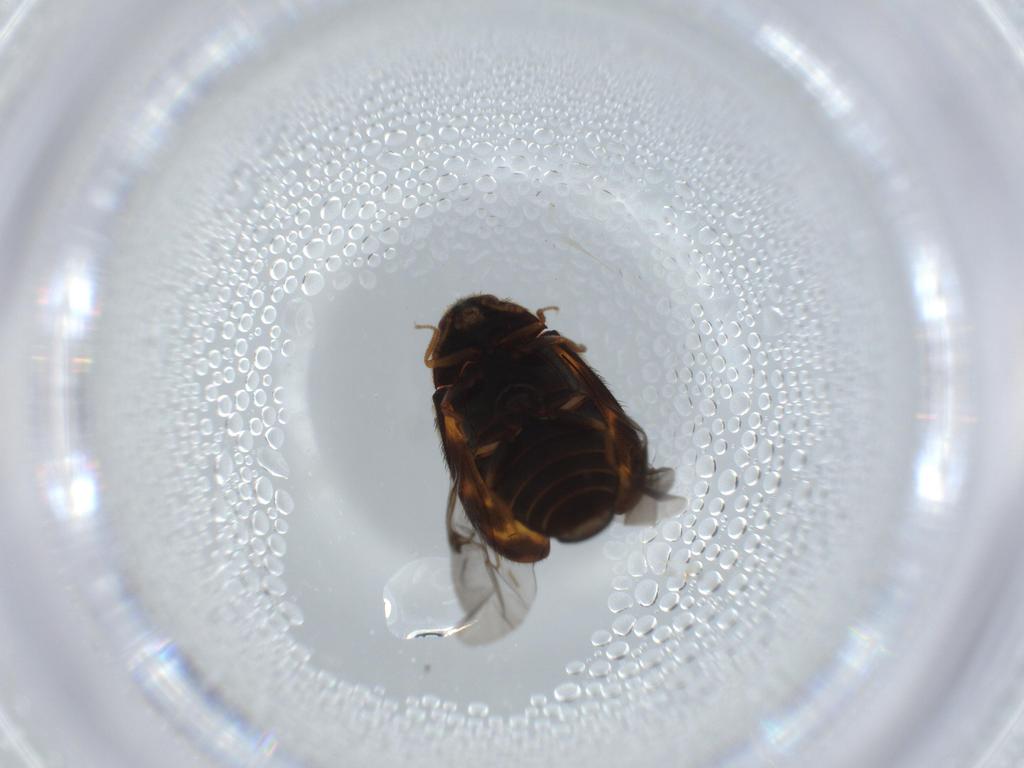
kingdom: Animalia
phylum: Arthropoda
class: Insecta
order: Coleoptera
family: Dermestidae
